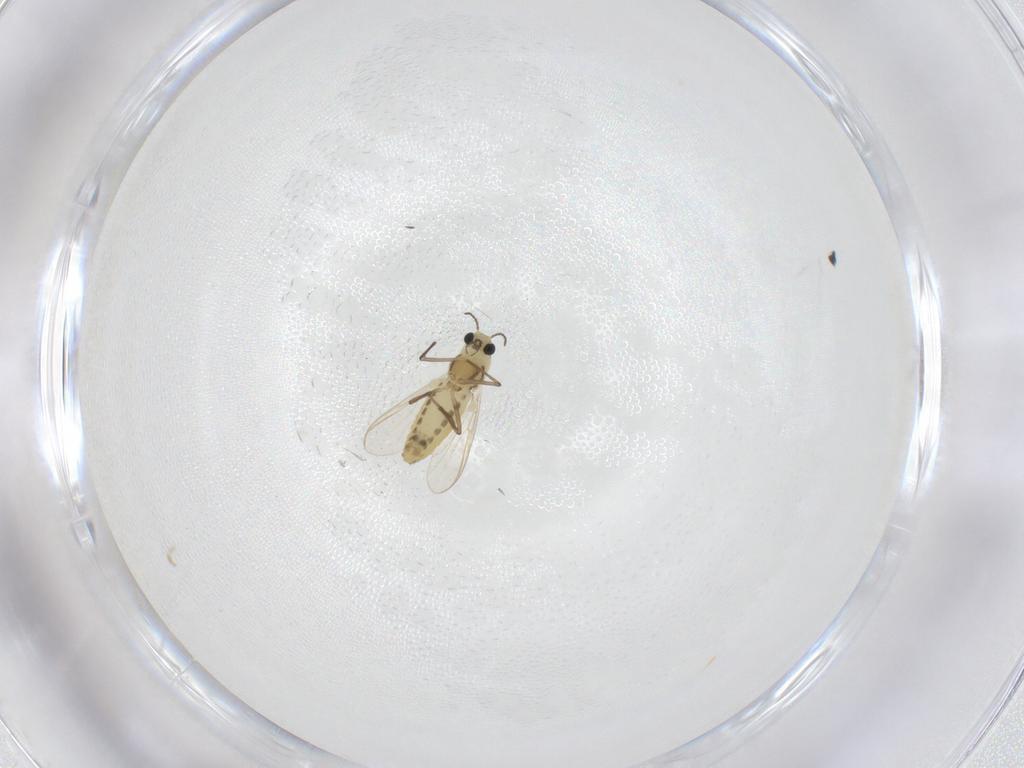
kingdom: Animalia
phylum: Arthropoda
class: Insecta
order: Diptera
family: Chironomidae
